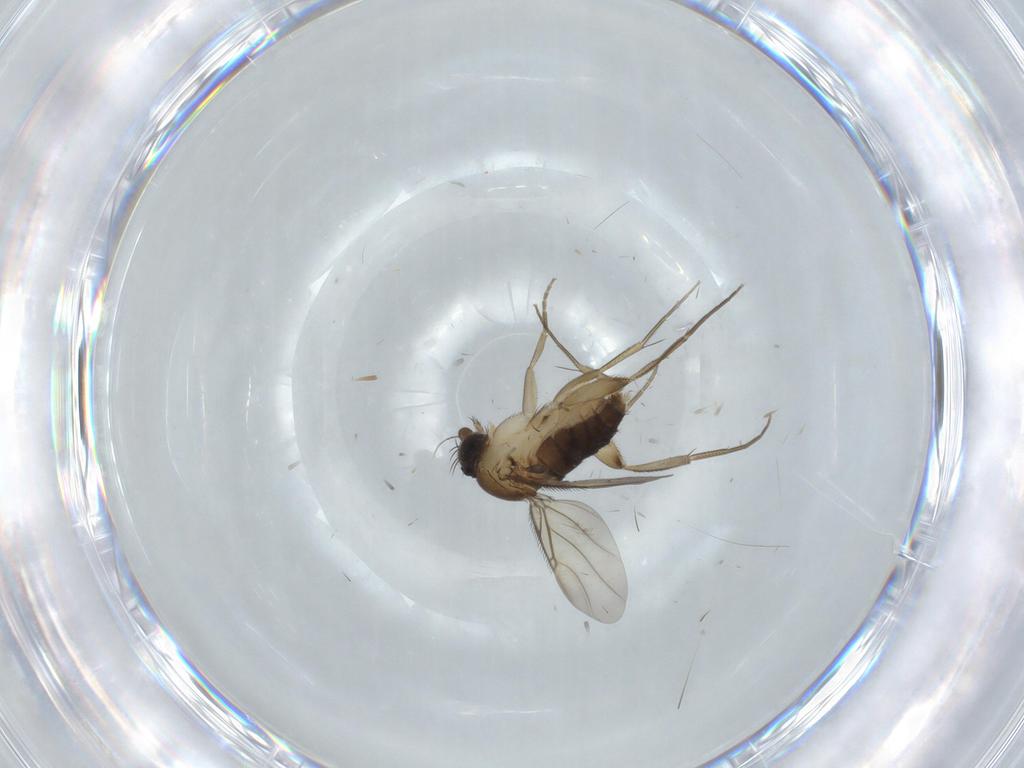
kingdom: Animalia
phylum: Arthropoda
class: Insecta
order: Diptera
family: Phoridae
